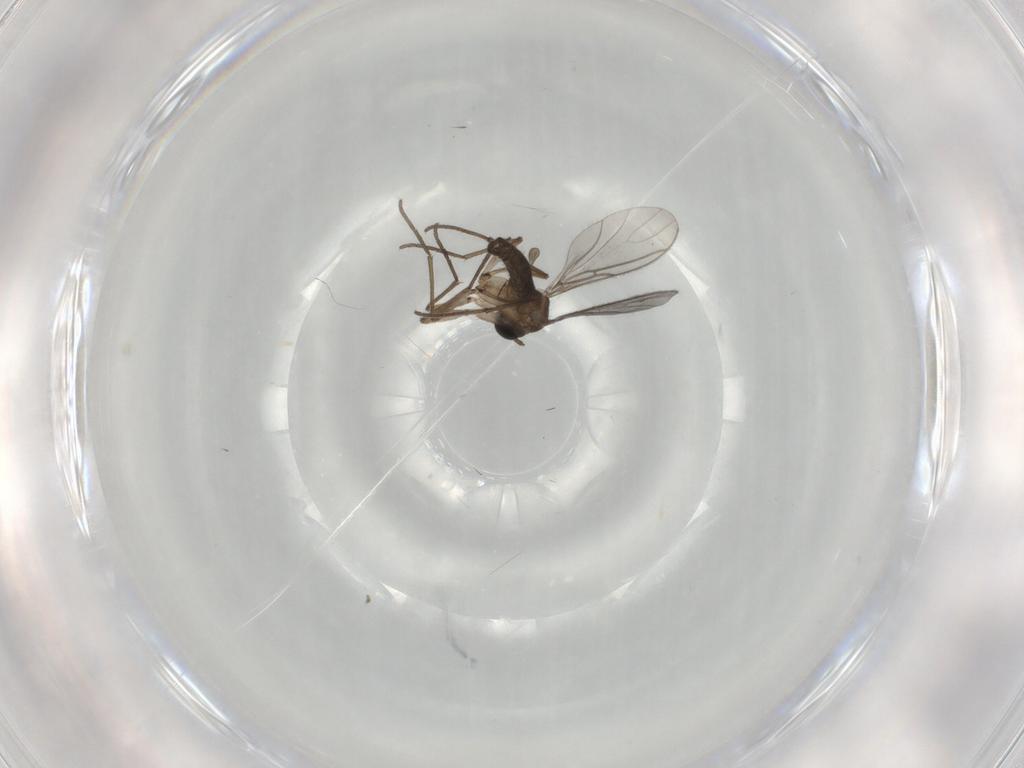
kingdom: Animalia
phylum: Arthropoda
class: Insecta
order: Diptera
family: Sciaridae
